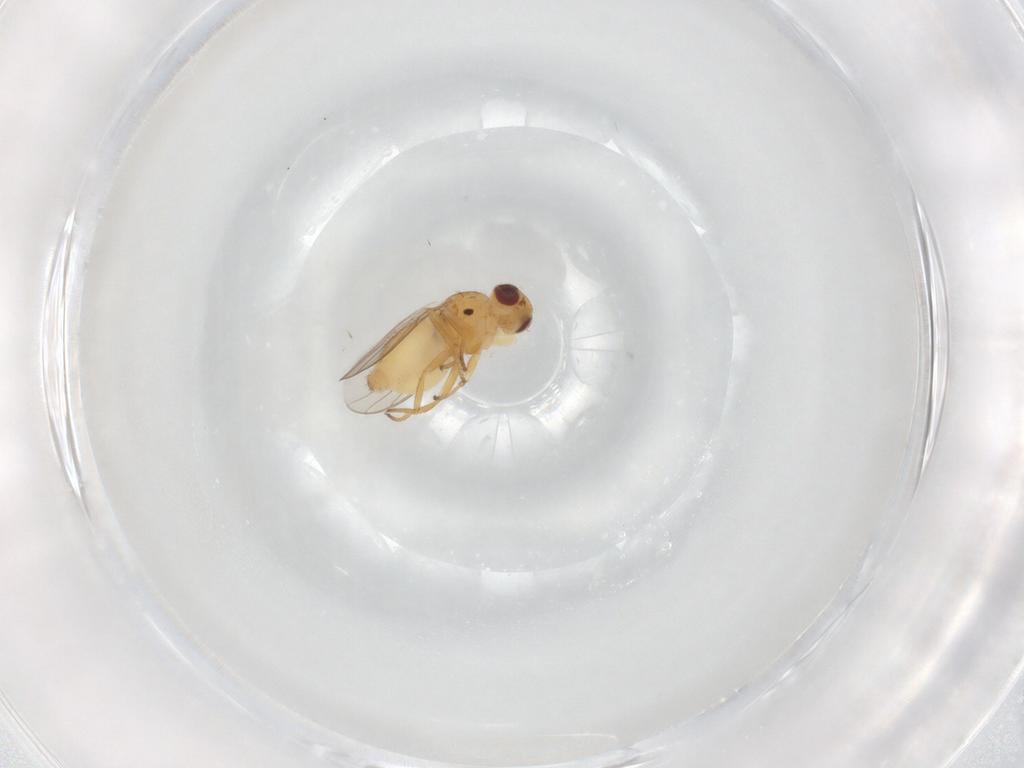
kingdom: Animalia
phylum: Arthropoda
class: Insecta
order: Diptera
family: Chloropidae
